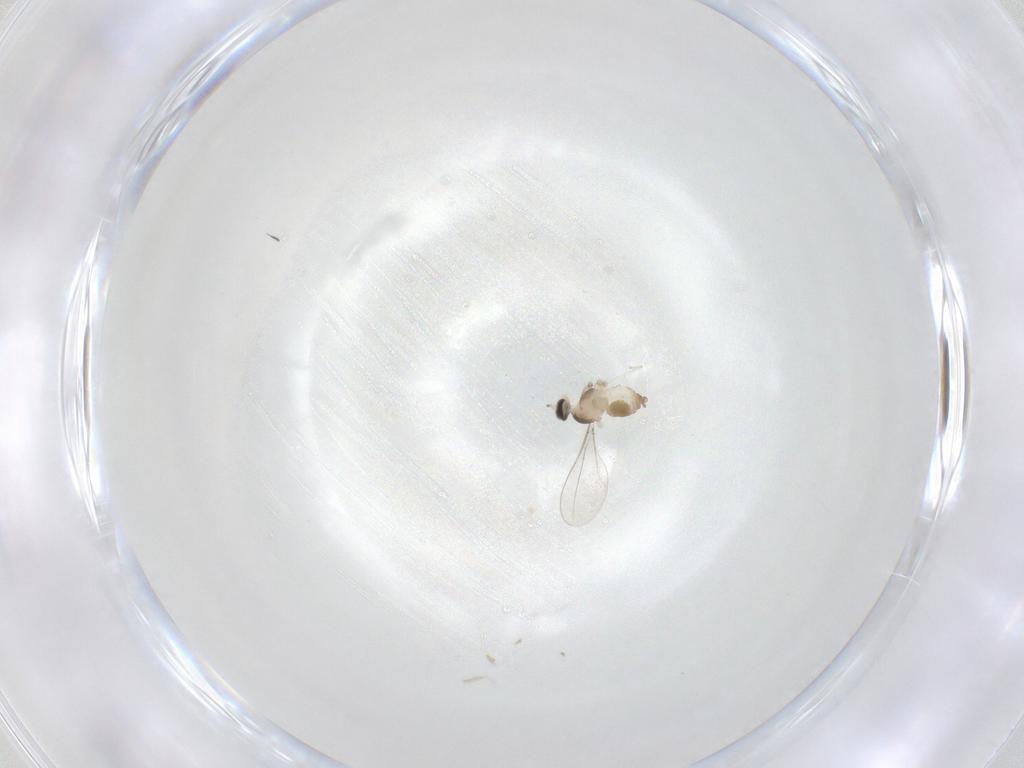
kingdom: Animalia
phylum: Arthropoda
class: Insecta
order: Diptera
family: Cecidomyiidae
